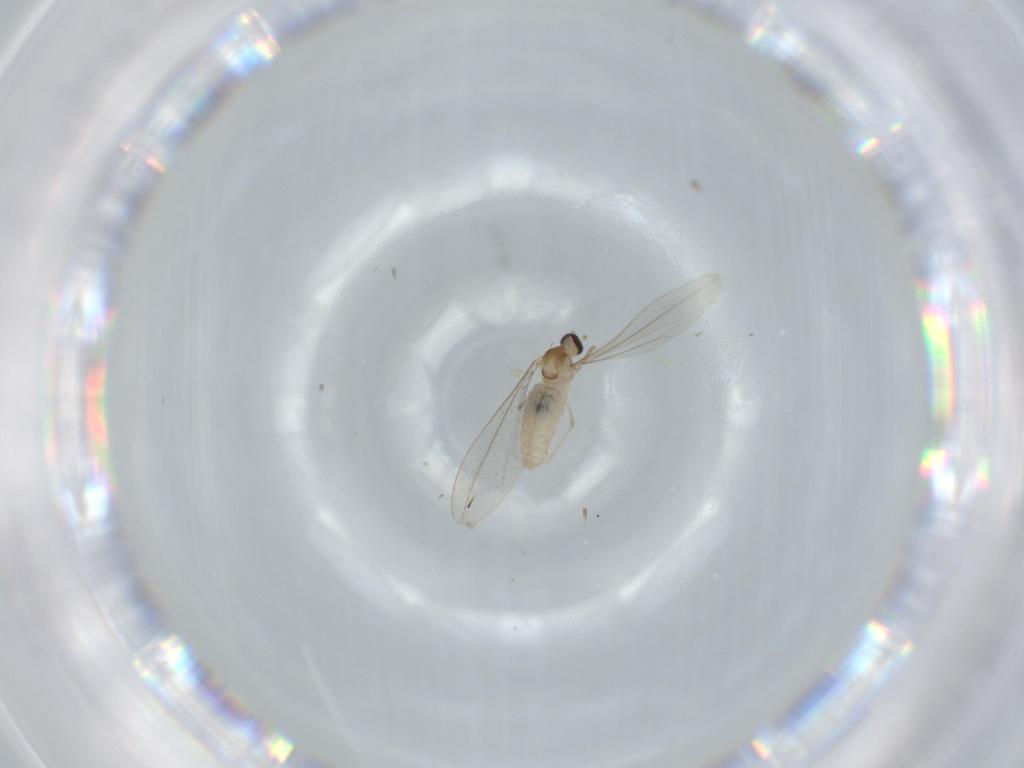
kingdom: Animalia
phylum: Arthropoda
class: Insecta
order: Diptera
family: Cecidomyiidae
